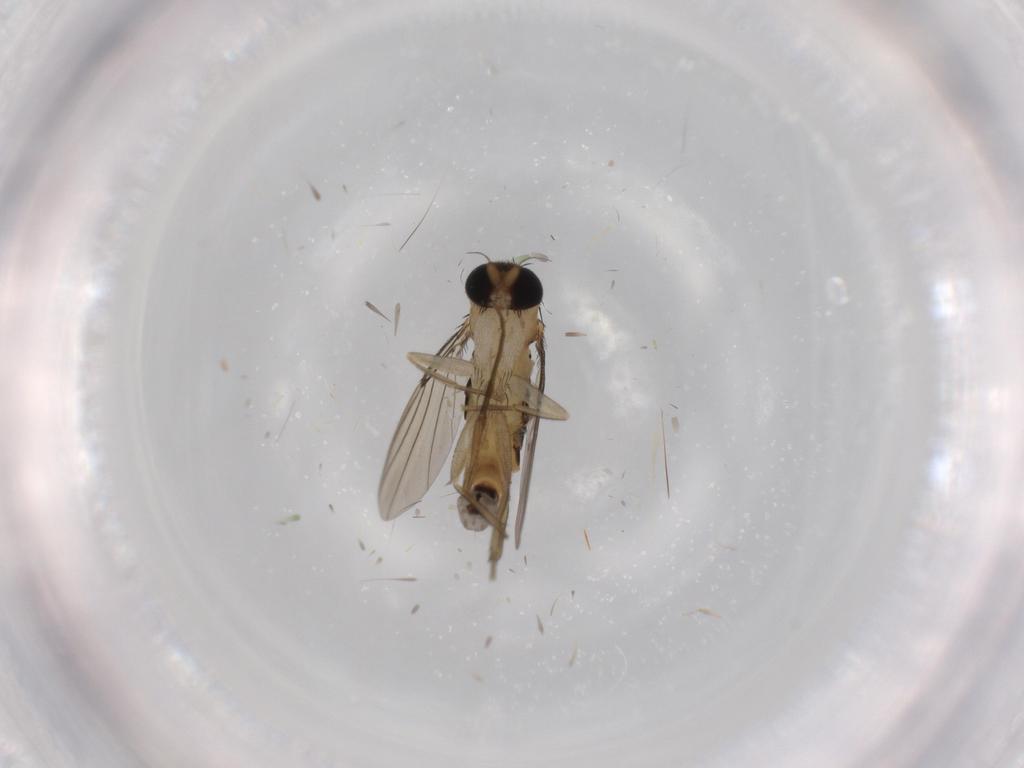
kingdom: Animalia
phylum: Arthropoda
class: Insecta
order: Diptera
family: Phoridae
